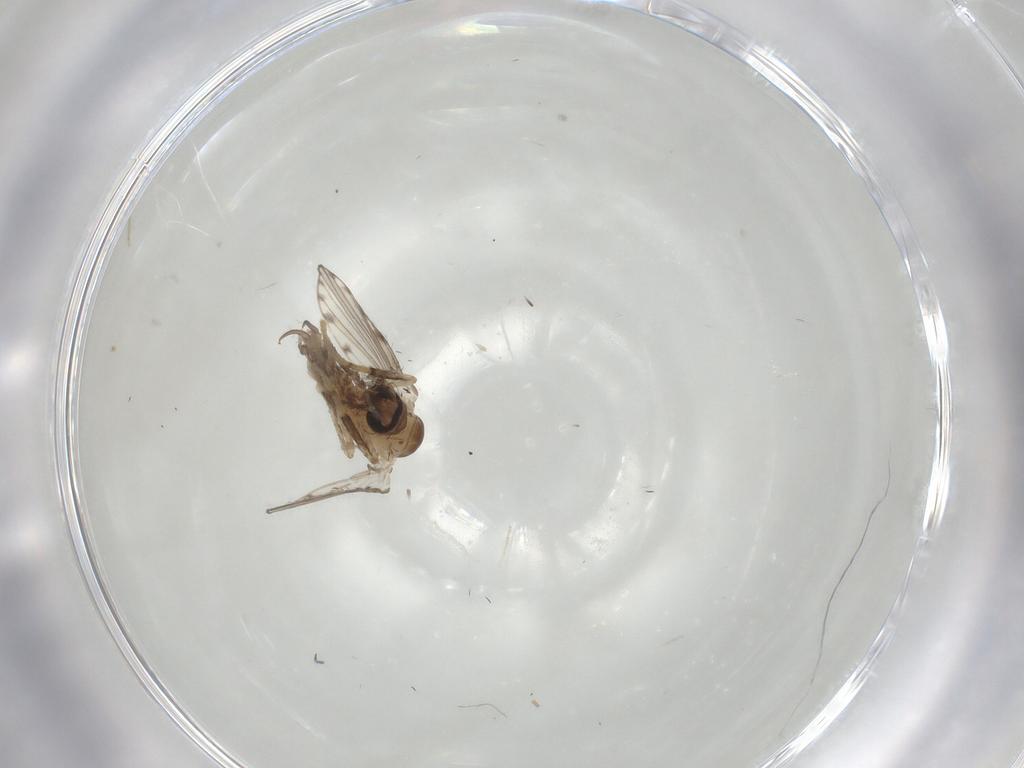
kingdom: Animalia
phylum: Arthropoda
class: Insecta
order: Diptera
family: Psychodidae
